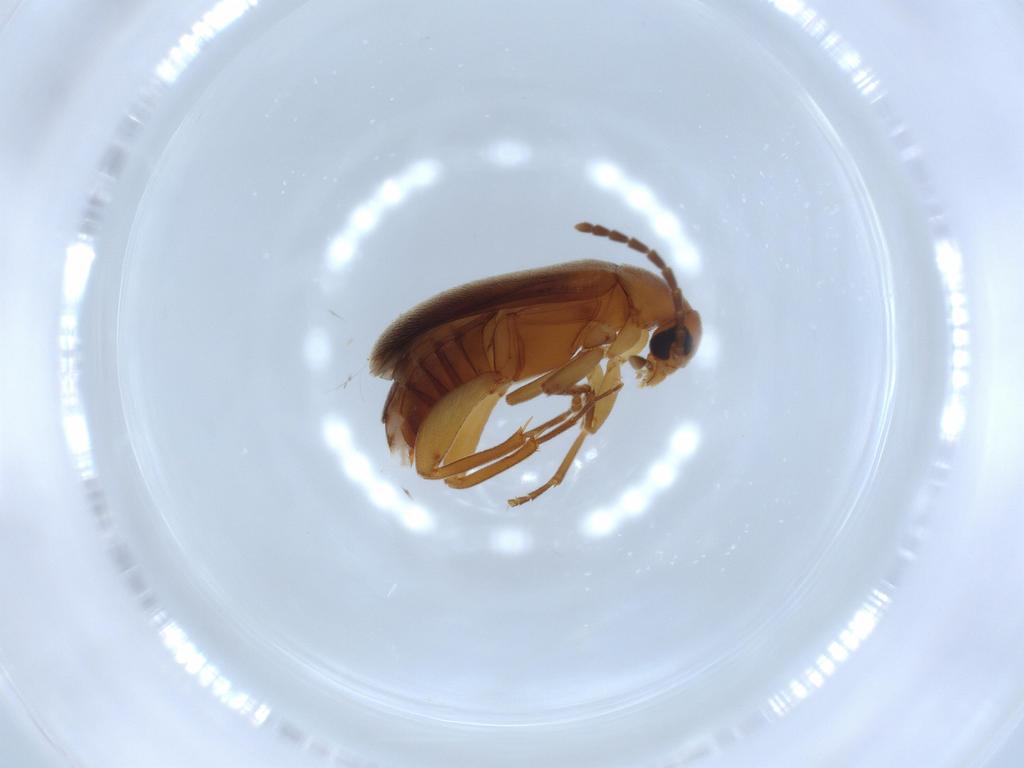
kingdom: Animalia
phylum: Arthropoda
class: Insecta
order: Coleoptera
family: Scraptiidae
